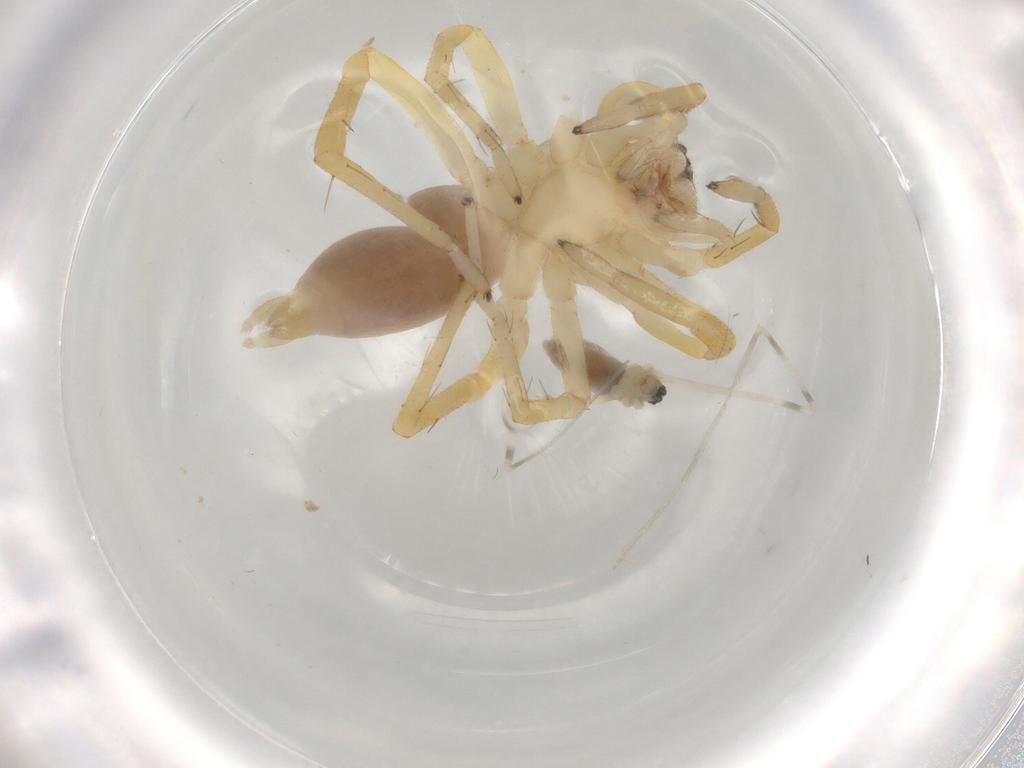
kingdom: Animalia
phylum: Arthropoda
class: Arachnida
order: Araneae
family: Pholcidae
